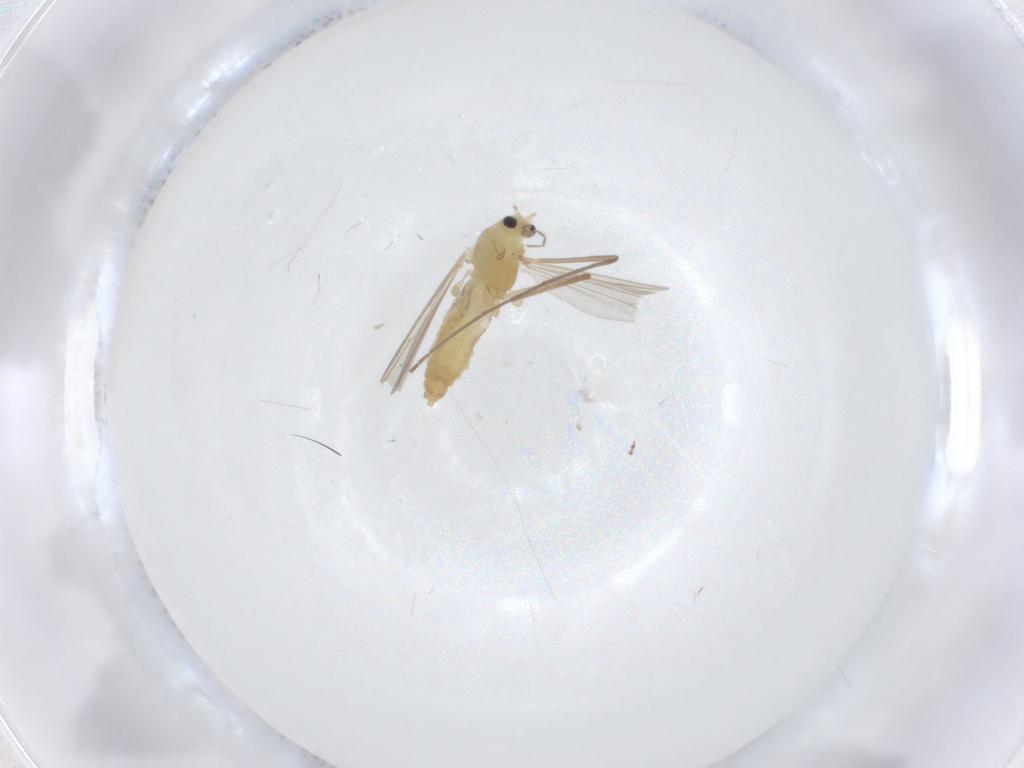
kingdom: Animalia
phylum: Arthropoda
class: Insecta
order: Diptera
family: Chironomidae
